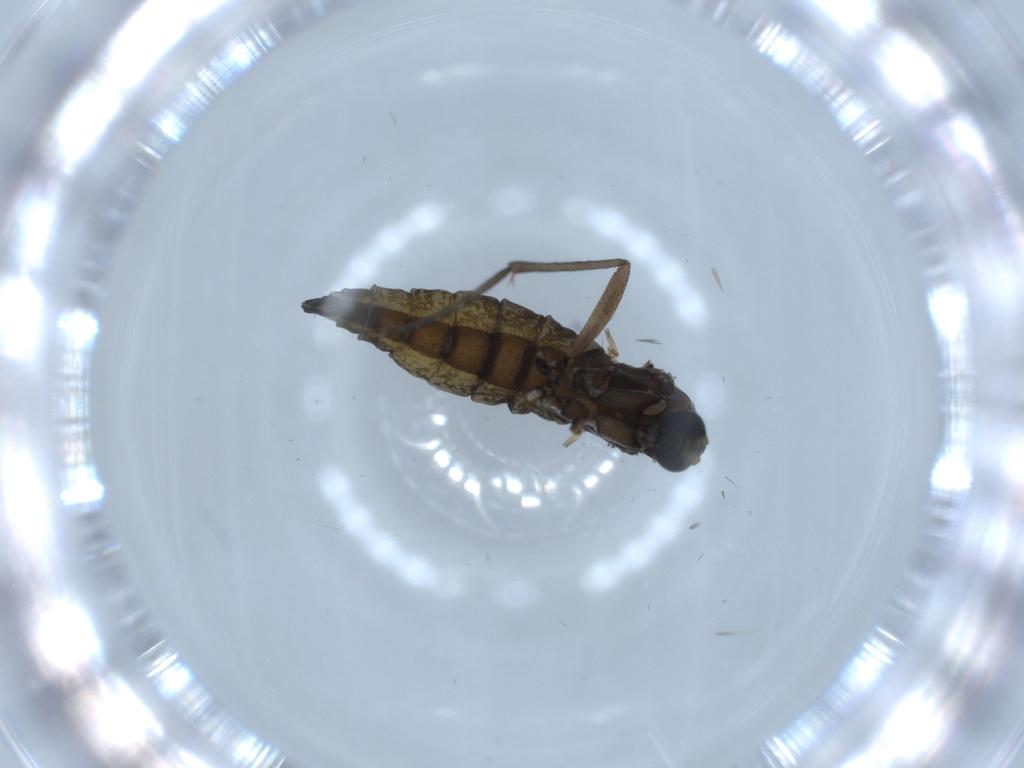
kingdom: Animalia
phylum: Arthropoda
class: Insecta
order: Diptera
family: Sciaridae
